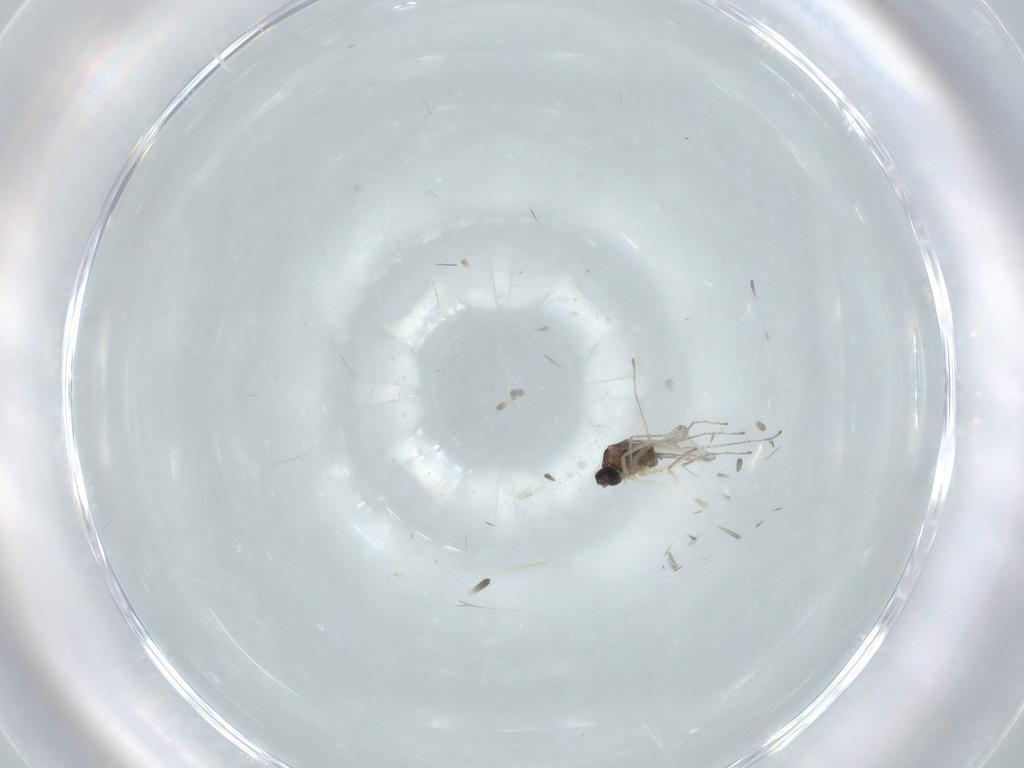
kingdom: Animalia
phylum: Arthropoda
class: Insecta
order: Diptera
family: Cecidomyiidae
